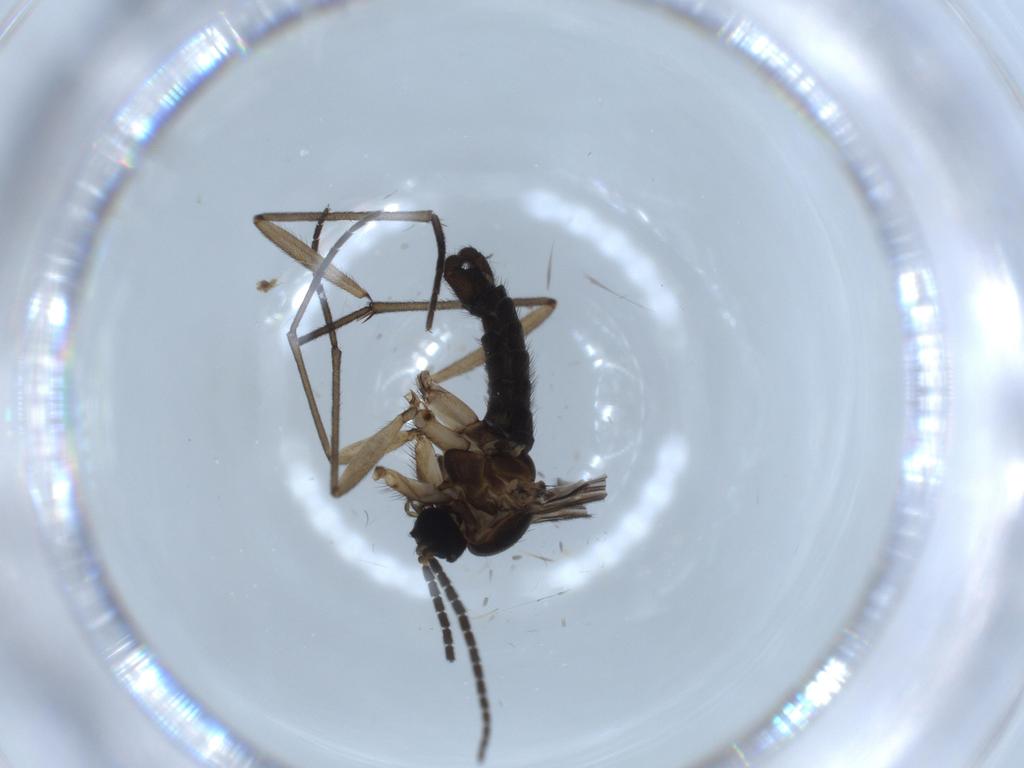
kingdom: Animalia
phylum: Arthropoda
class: Insecta
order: Diptera
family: Sciaridae
